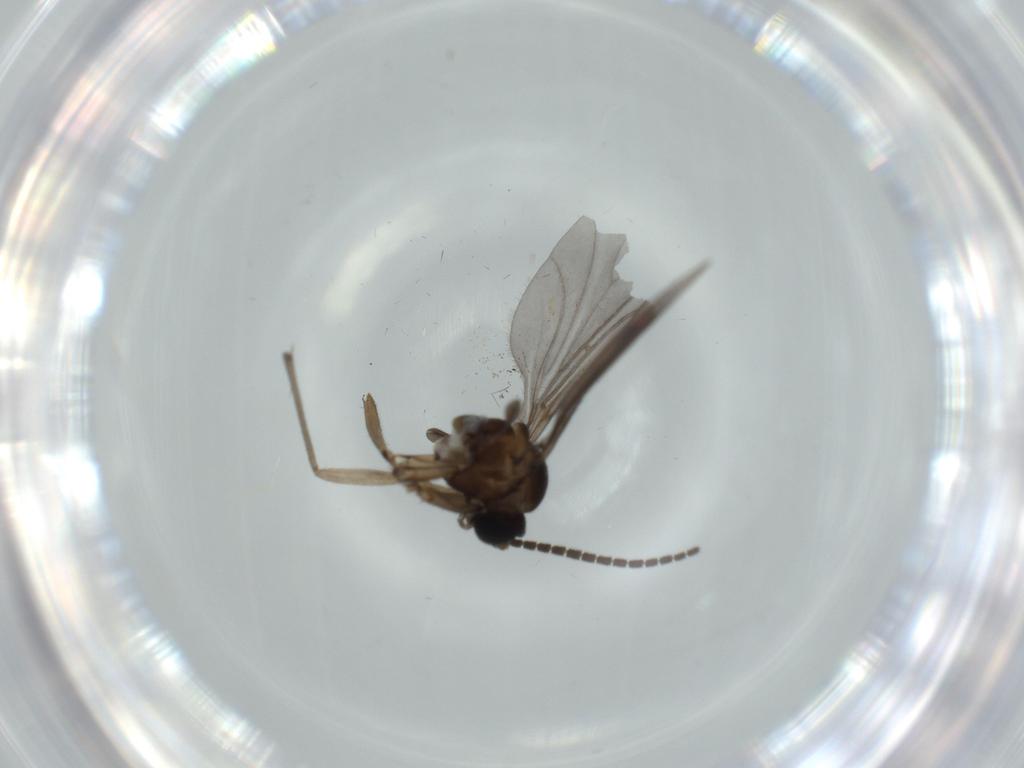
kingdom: Animalia
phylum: Arthropoda
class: Insecta
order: Diptera
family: Sciaridae
